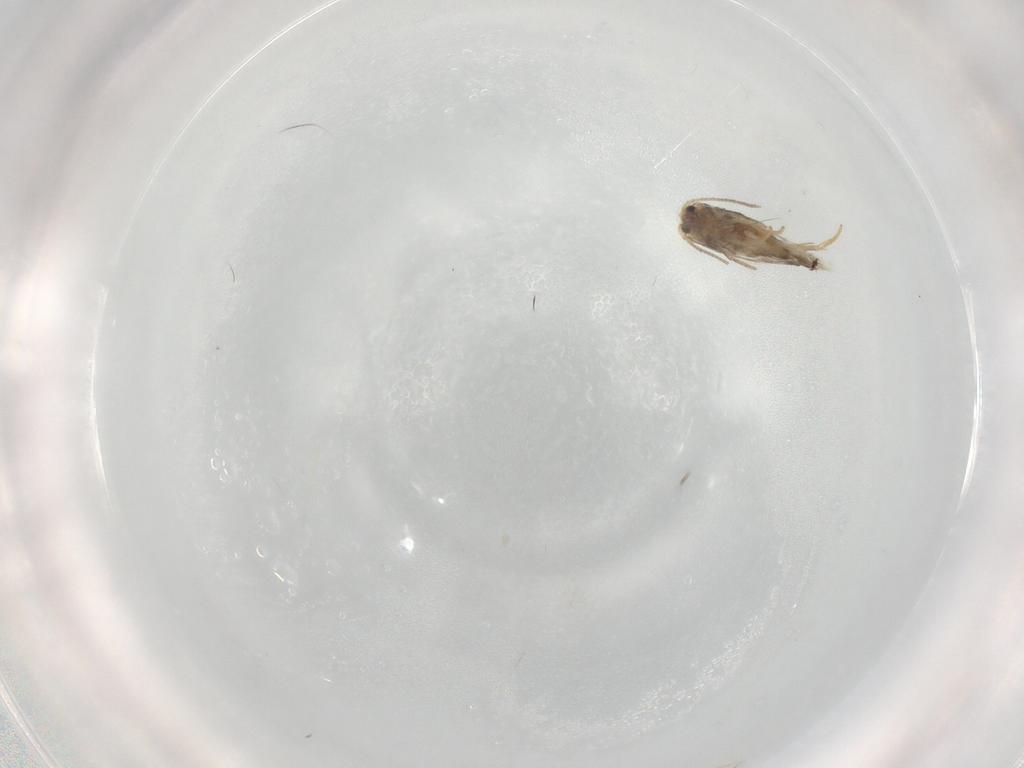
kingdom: Animalia
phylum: Arthropoda
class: Insecta
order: Lepidoptera
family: Nepticulidae
